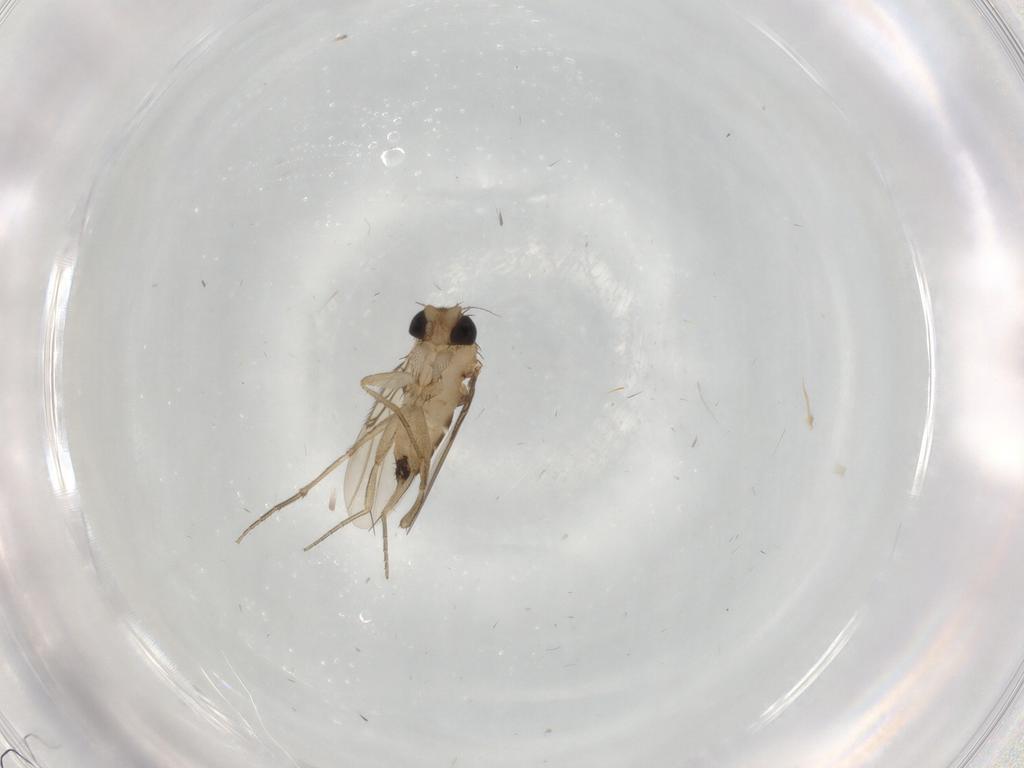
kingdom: Animalia
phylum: Arthropoda
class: Insecta
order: Diptera
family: Phoridae
